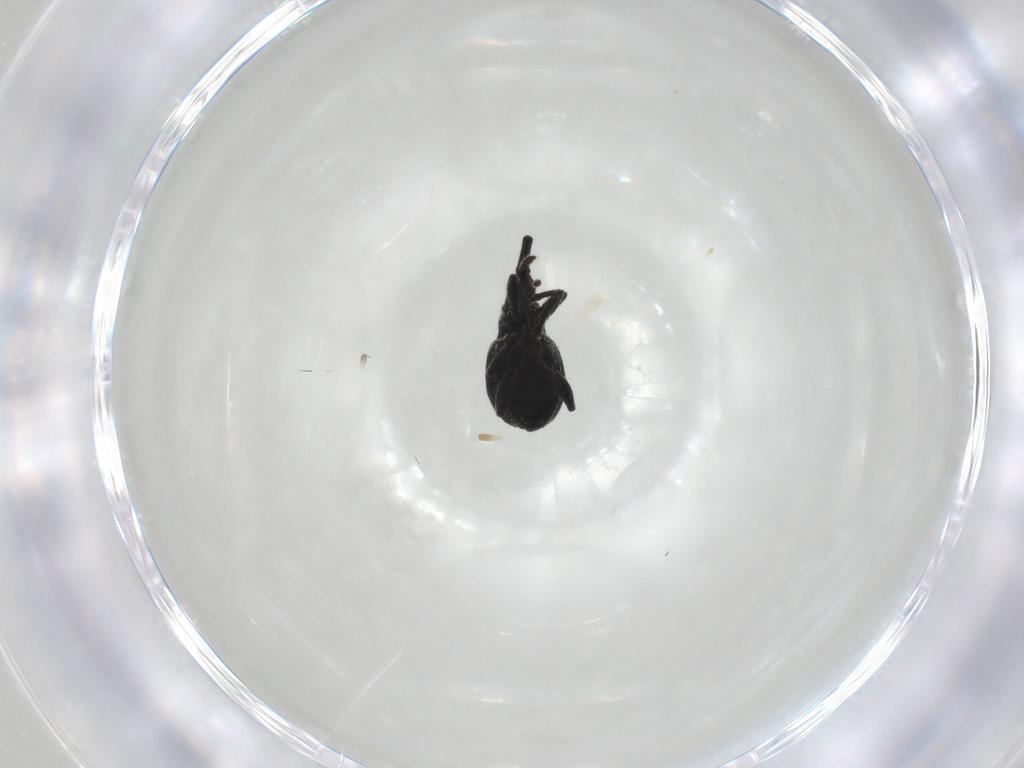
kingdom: Animalia
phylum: Arthropoda
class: Insecta
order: Coleoptera
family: Brentidae
